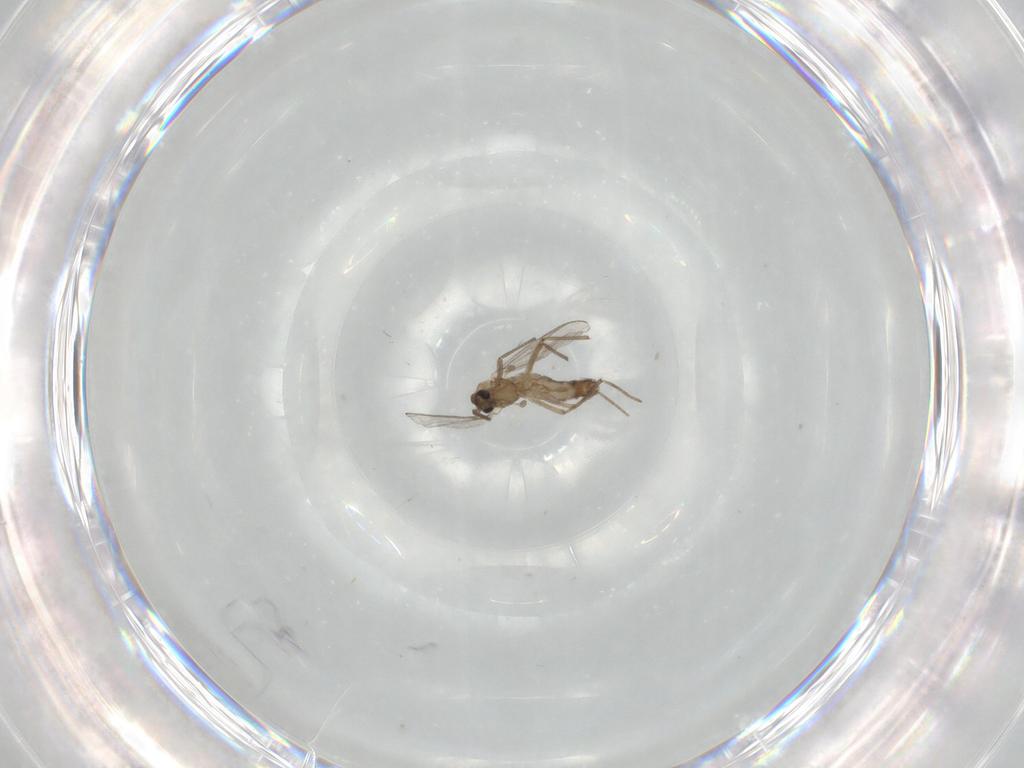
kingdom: Animalia
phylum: Arthropoda
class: Insecta
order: Diptera
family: Chironomidae
